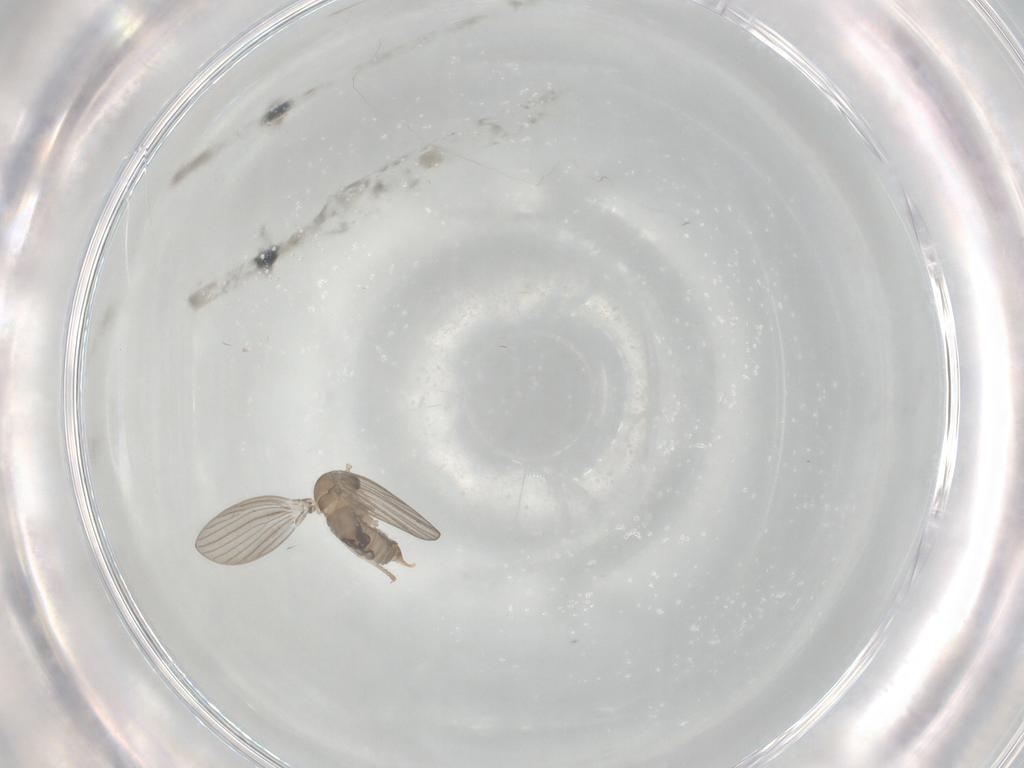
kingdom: Animalia
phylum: Arthropoda
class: Insecta
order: Diptera
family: Psychodidae
